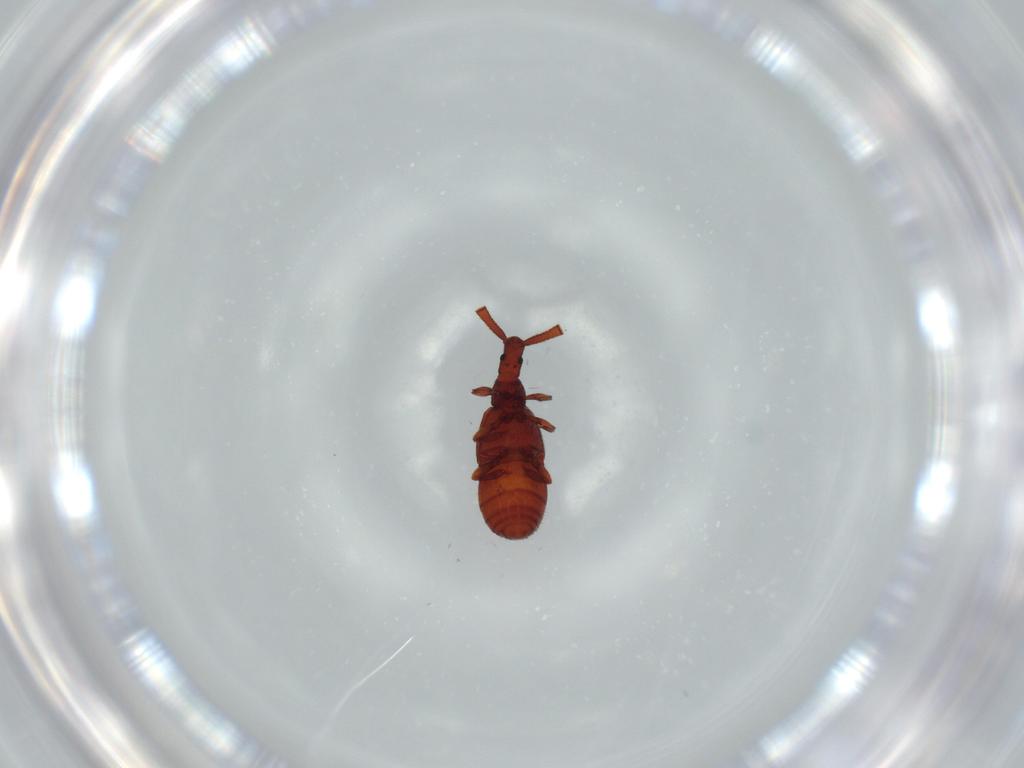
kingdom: Animalia
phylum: Arthropoda
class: Insecta
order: Coleoptera
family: Staphylinidae
